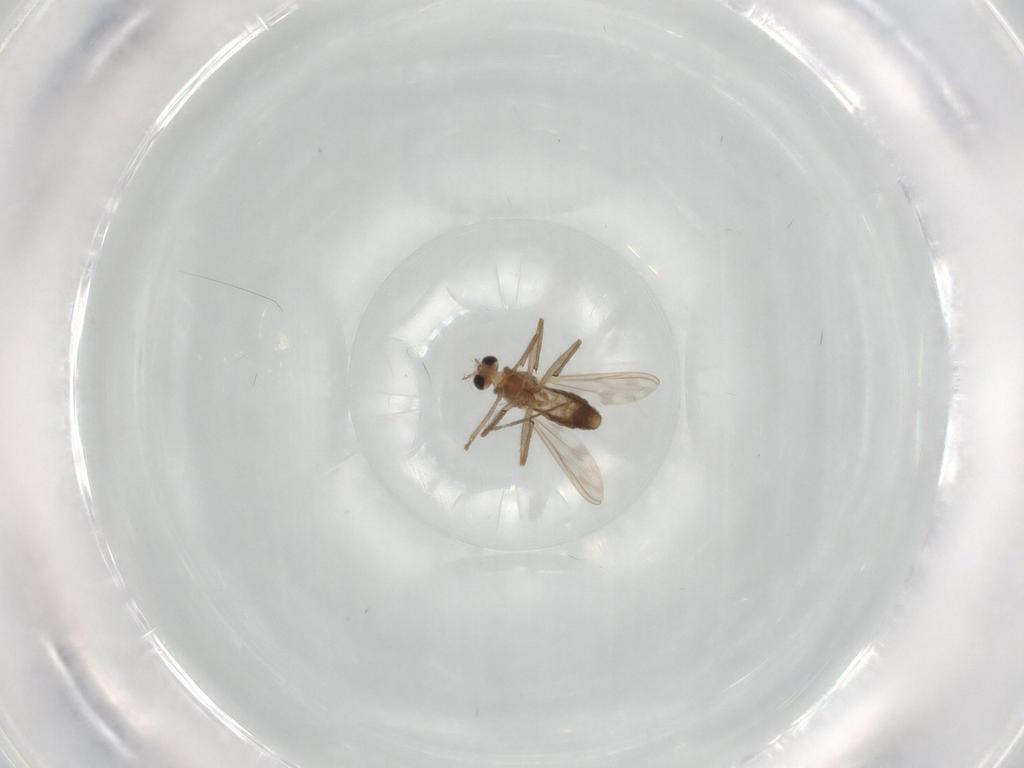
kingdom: Animalia
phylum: Arthropoda
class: Insecta
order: Diptera
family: Chironomidae
